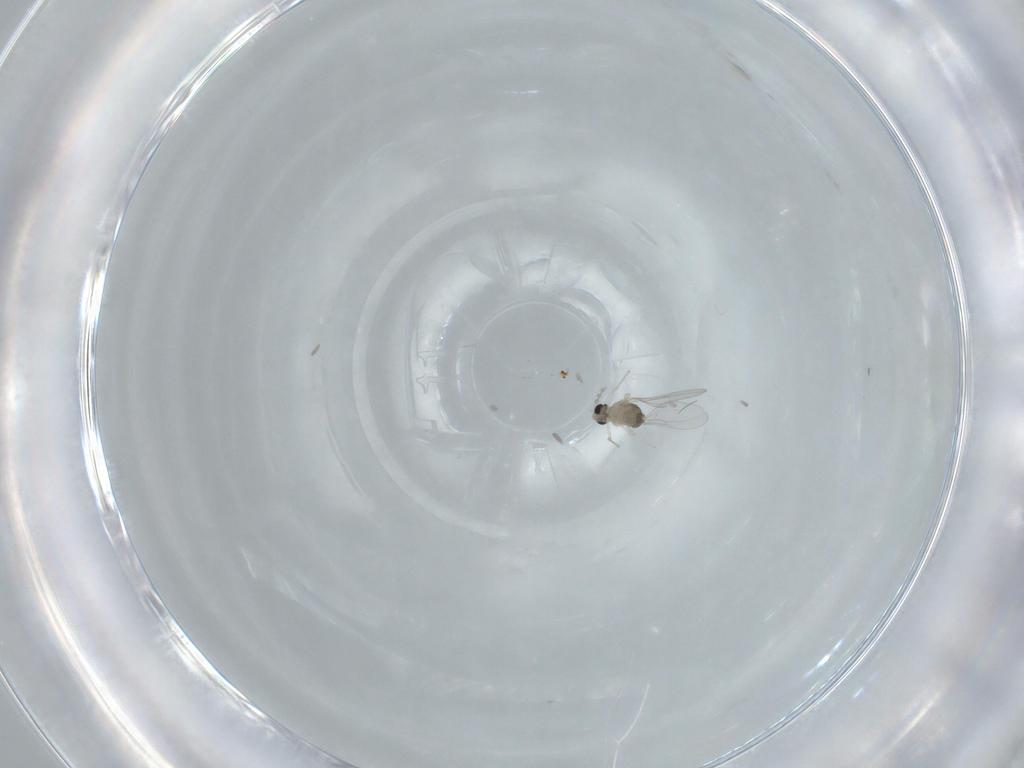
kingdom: Animalia
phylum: Arthropoda
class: Insecta
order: Diptera
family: Cecidomyiidae
